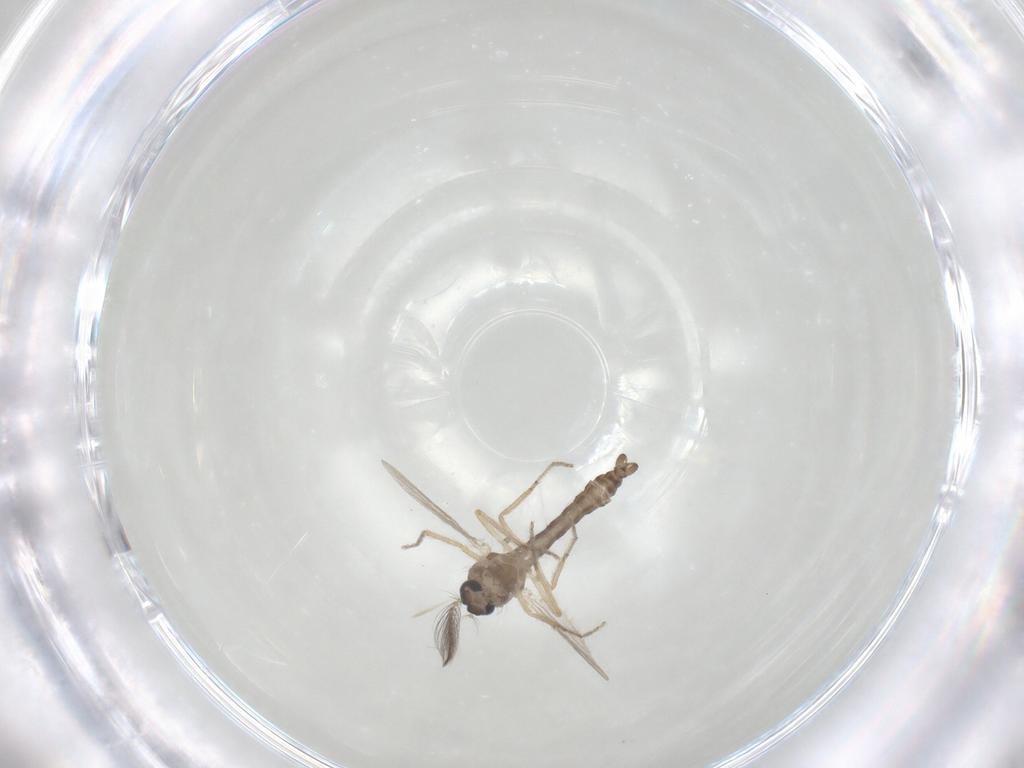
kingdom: Animalia
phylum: Arthropoda
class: Insecta
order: Diptera
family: Ceratopogonidae
